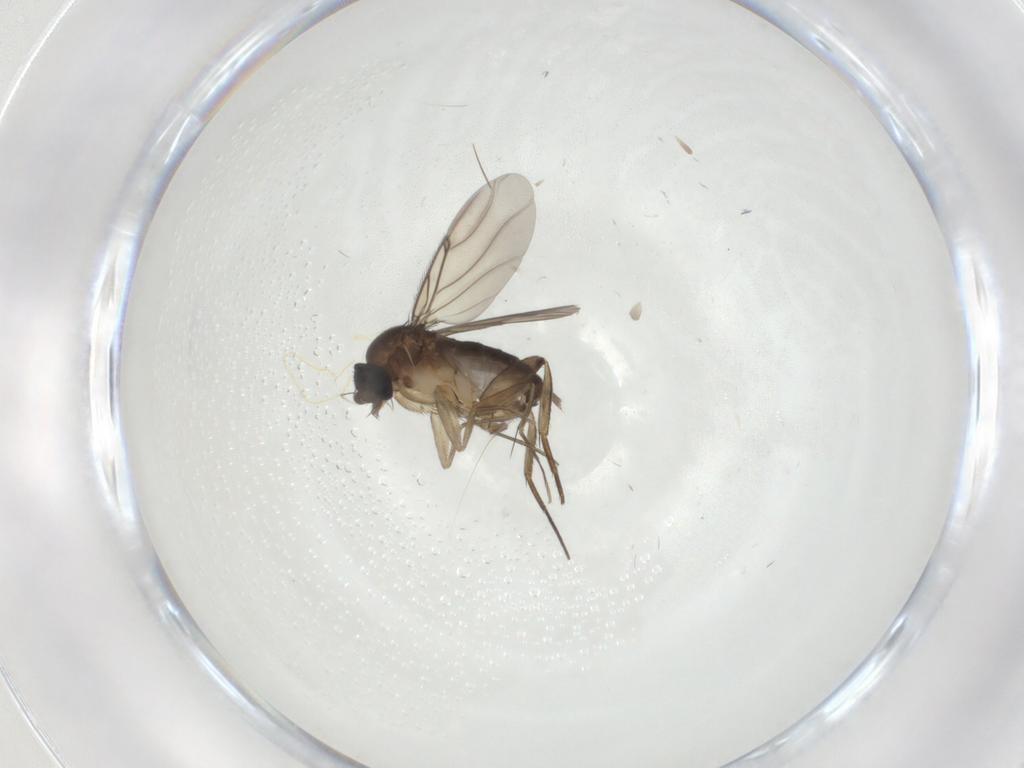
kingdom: Animalia
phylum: Arthropoda
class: Insecta
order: Diptera
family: Phoridae
